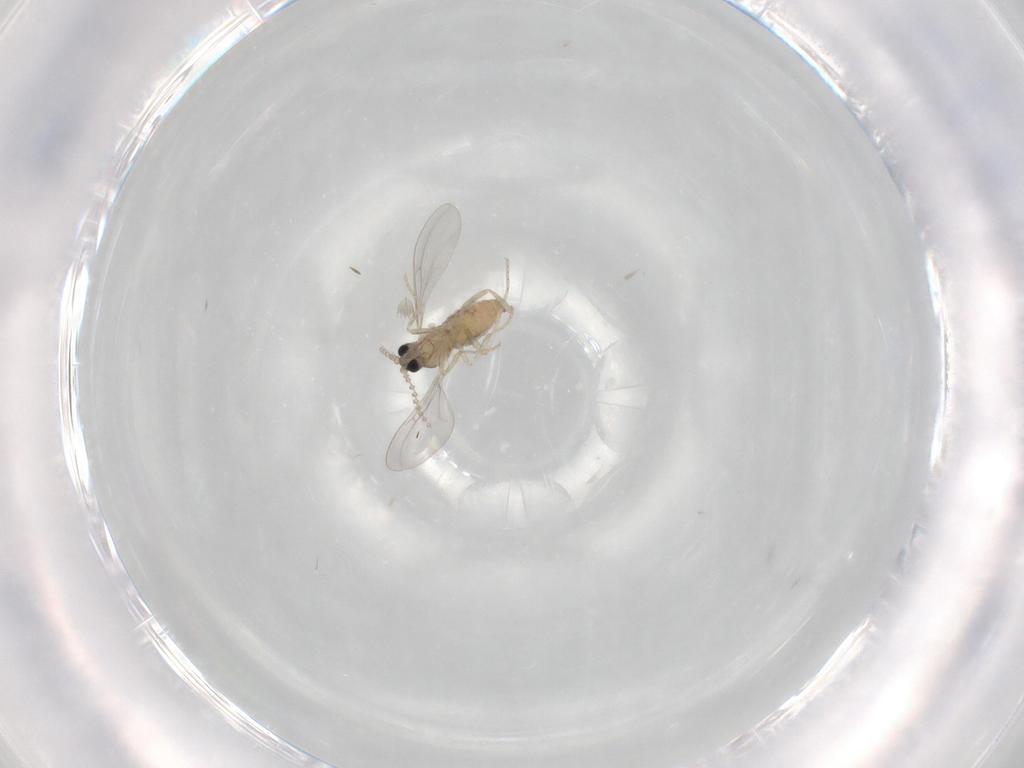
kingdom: Animalia
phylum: Arthropoda
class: Insecta
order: Diptera
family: Cecidomyiidae
